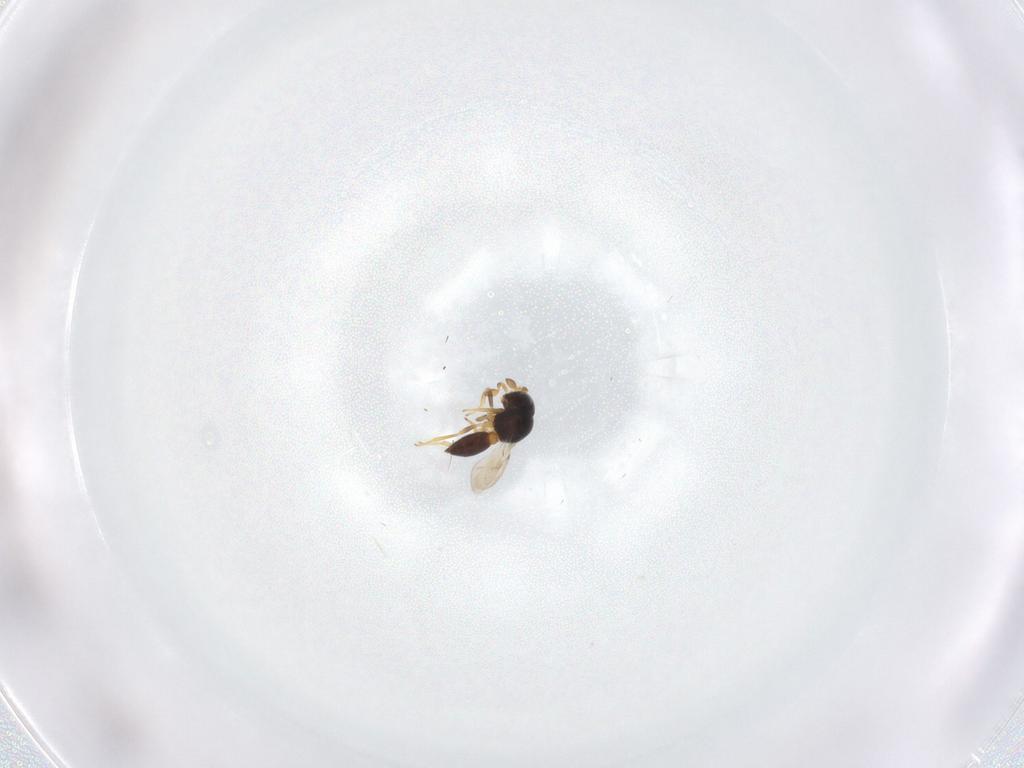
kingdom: Animalia
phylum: Arthropoda
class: Insecta
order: Hymenoptera
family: Scelionidae
